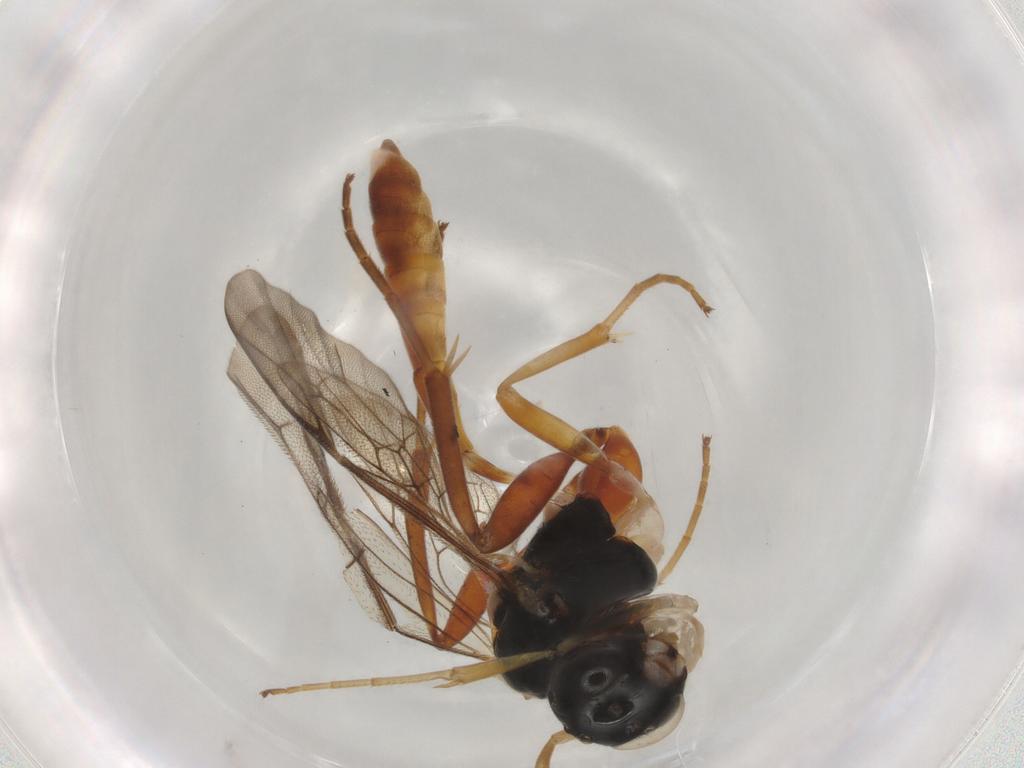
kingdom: Animalia
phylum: Arthropoda
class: Insecta
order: Hymenoptera
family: Ichneumonidae
